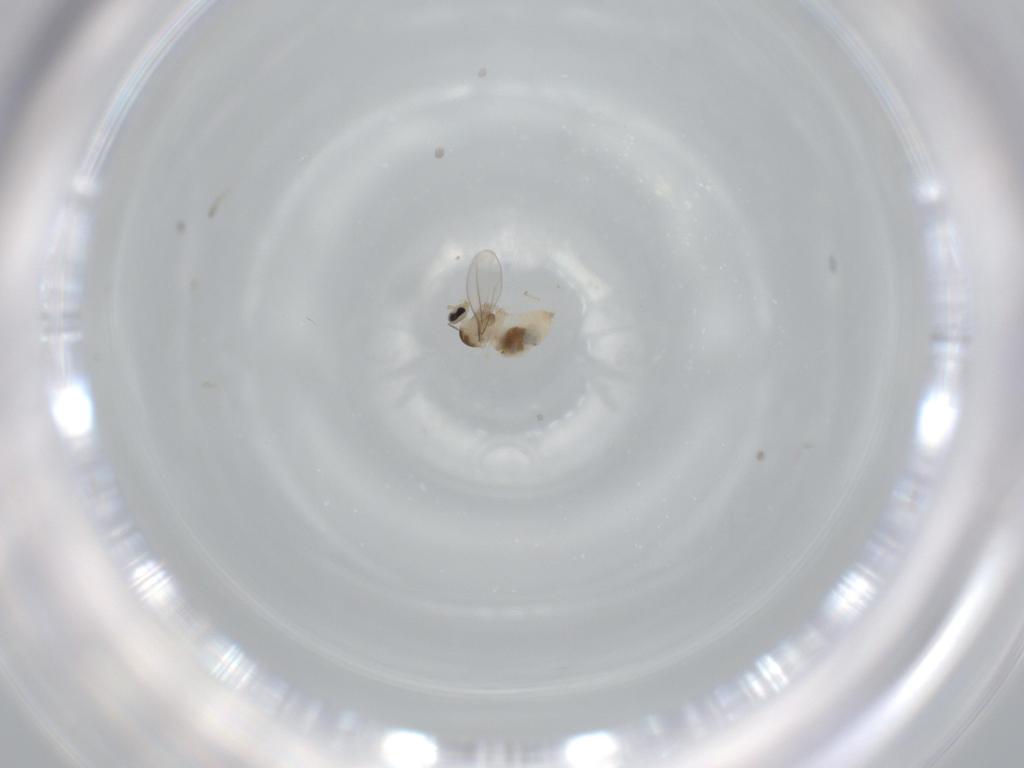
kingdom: Animalia
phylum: Arthropoda
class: Insecta
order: Diptera
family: Cecidomyiidae
